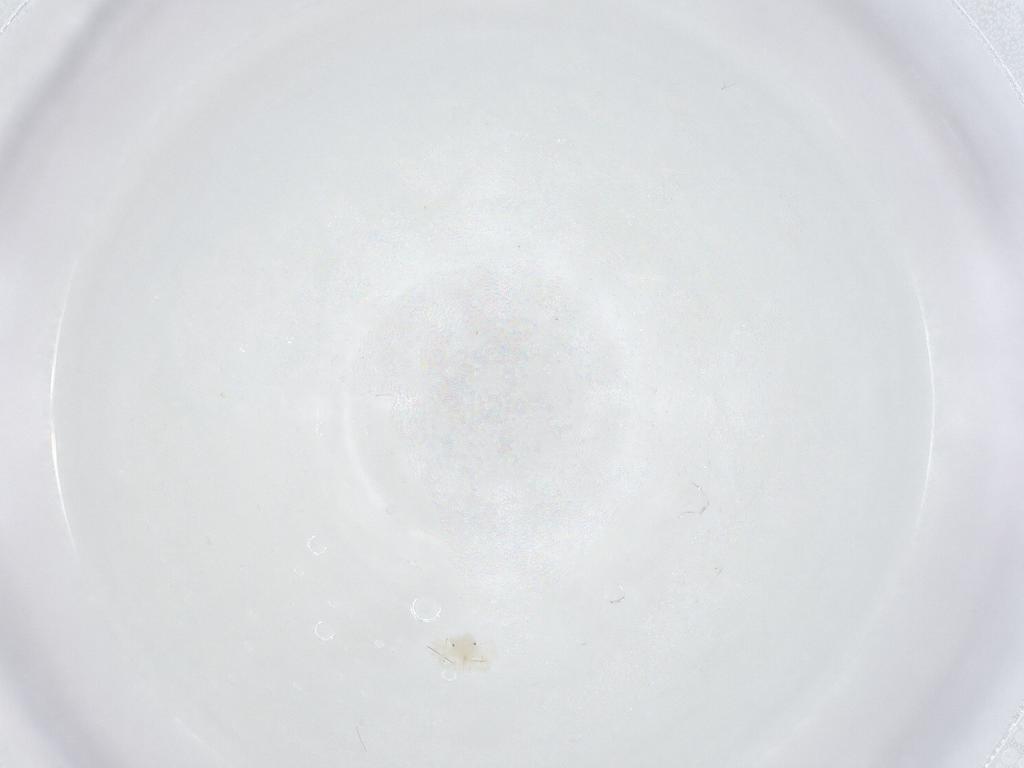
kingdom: Animalia
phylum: Arthropoda
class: Arachnida
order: Trombidiformes
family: Anystidae
